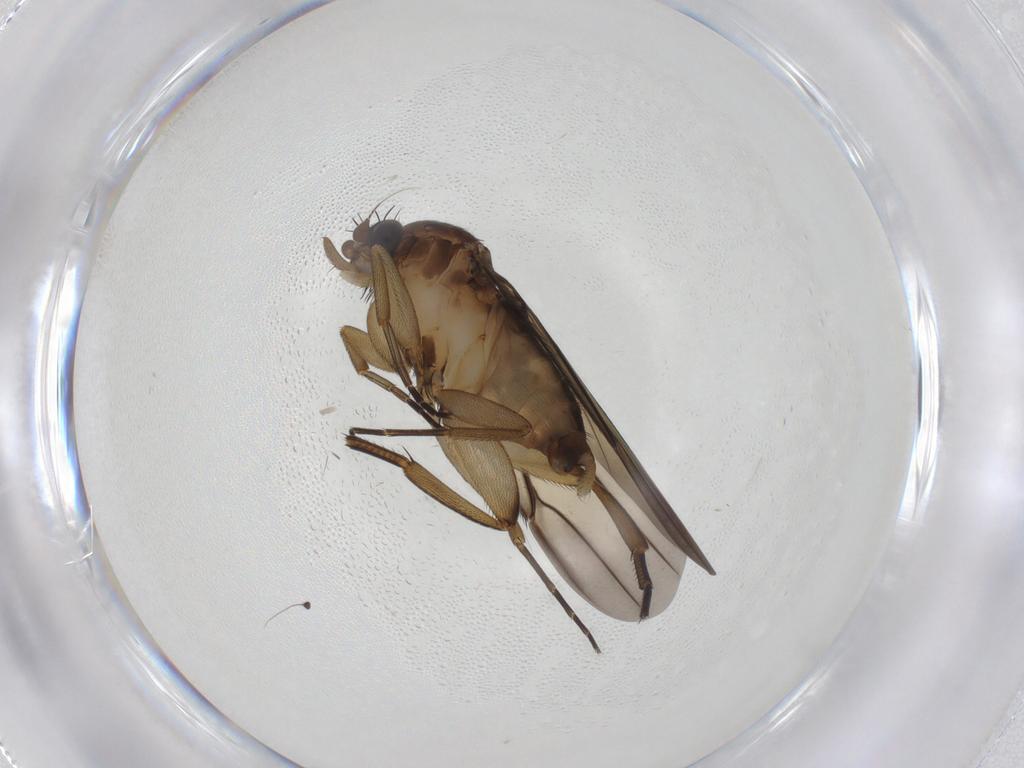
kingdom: Animalia
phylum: Arthropoda
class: Insecta
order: Diptera
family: Phoridae
